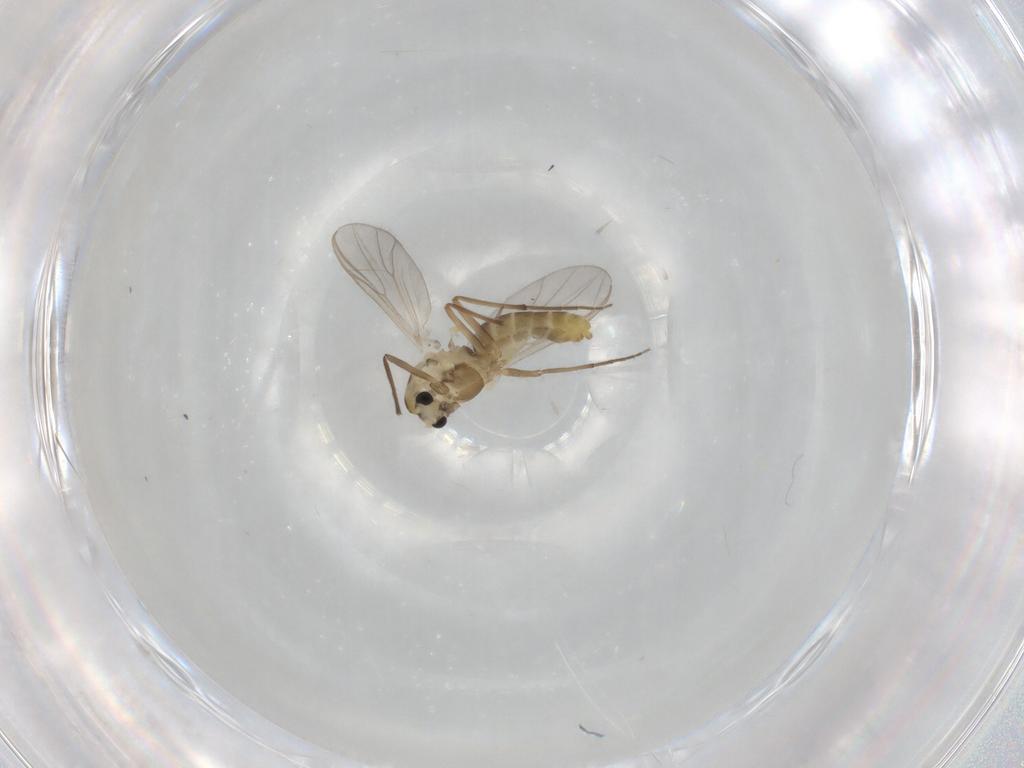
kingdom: Animalia
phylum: Arthropoda
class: Insecta
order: Diptera
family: Chironomidae
